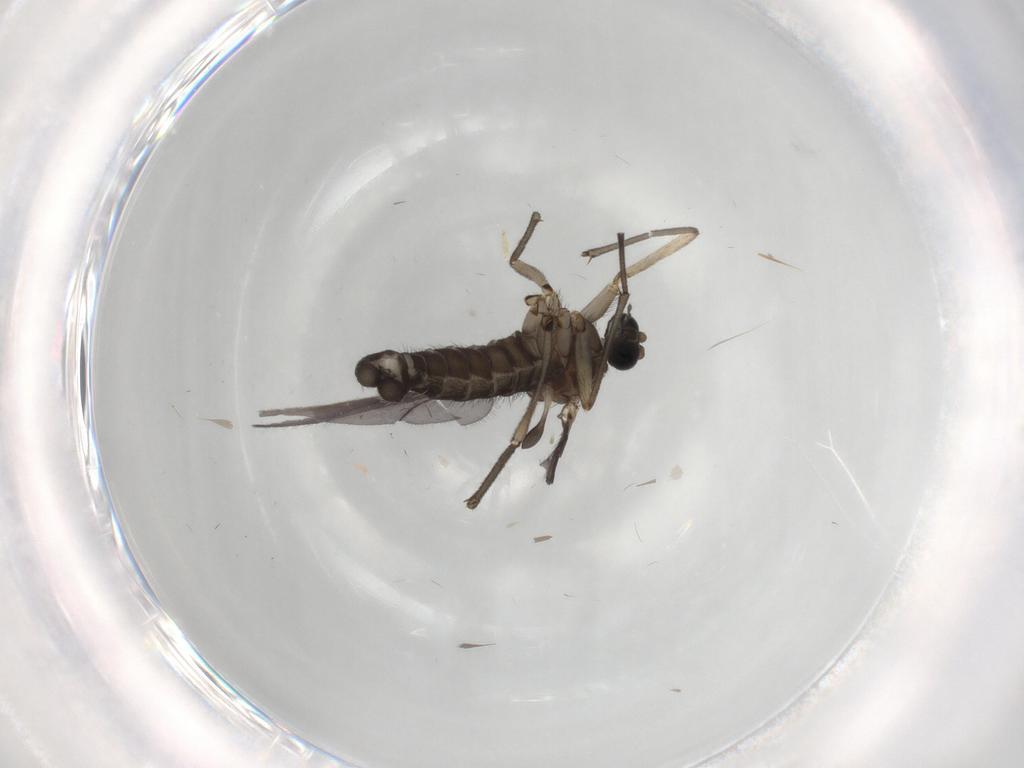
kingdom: Animalia
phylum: Arthropoda
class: Insecta
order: Diptera
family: Sciaridae
